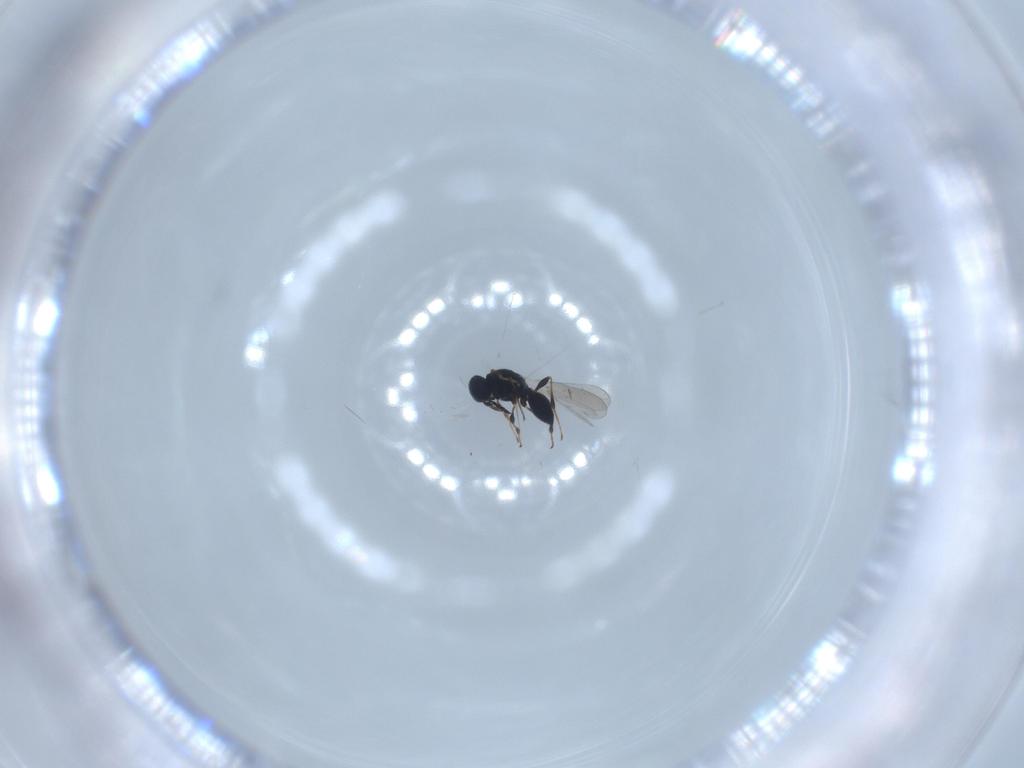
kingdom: Animalia
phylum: Arthropoda
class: Insecta
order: Hymenoptera
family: Platygastridae
